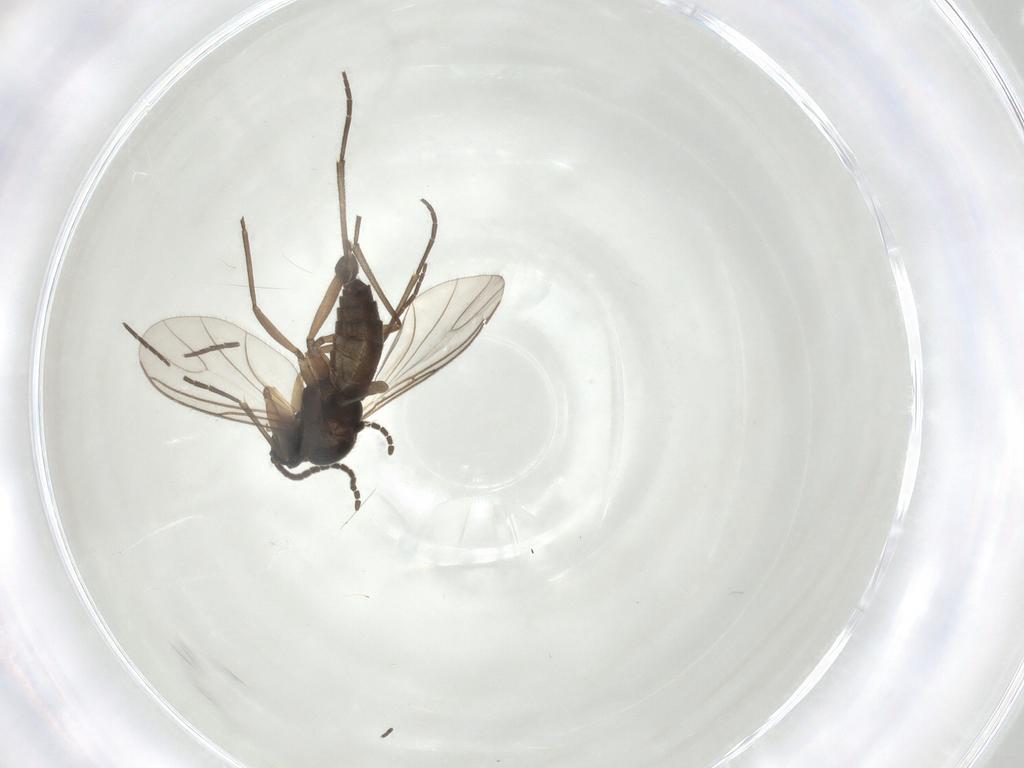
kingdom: Animalia
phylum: Arthropoda
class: Insecta
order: Diptera
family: Sciaridae
